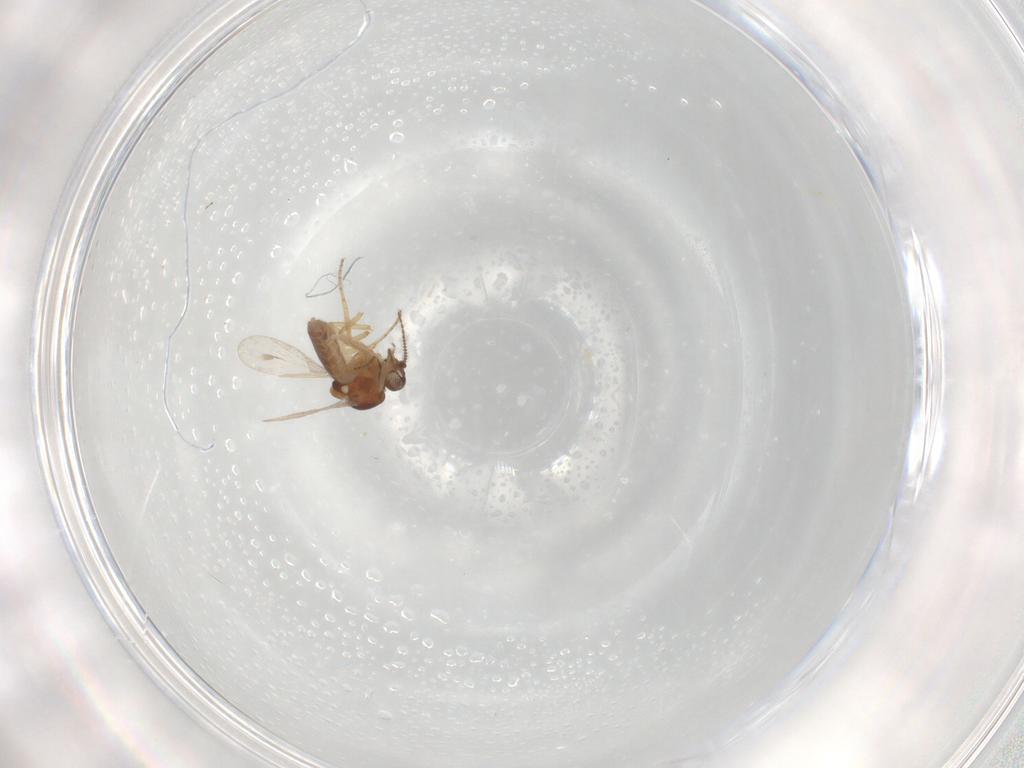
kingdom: Animalia
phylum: Arthropoda
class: Insecta
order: Diptera
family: Ceratopogonidae
